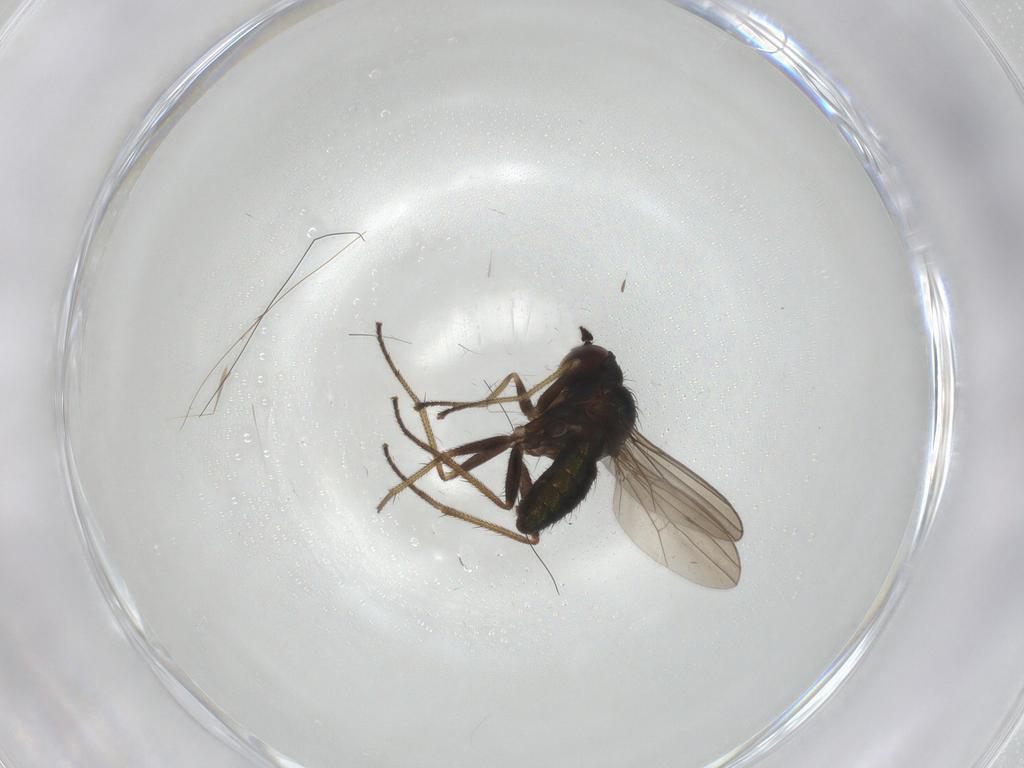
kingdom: Animalia
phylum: Arthropoda
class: Insecta
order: Diptera
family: Dolichopodidae
